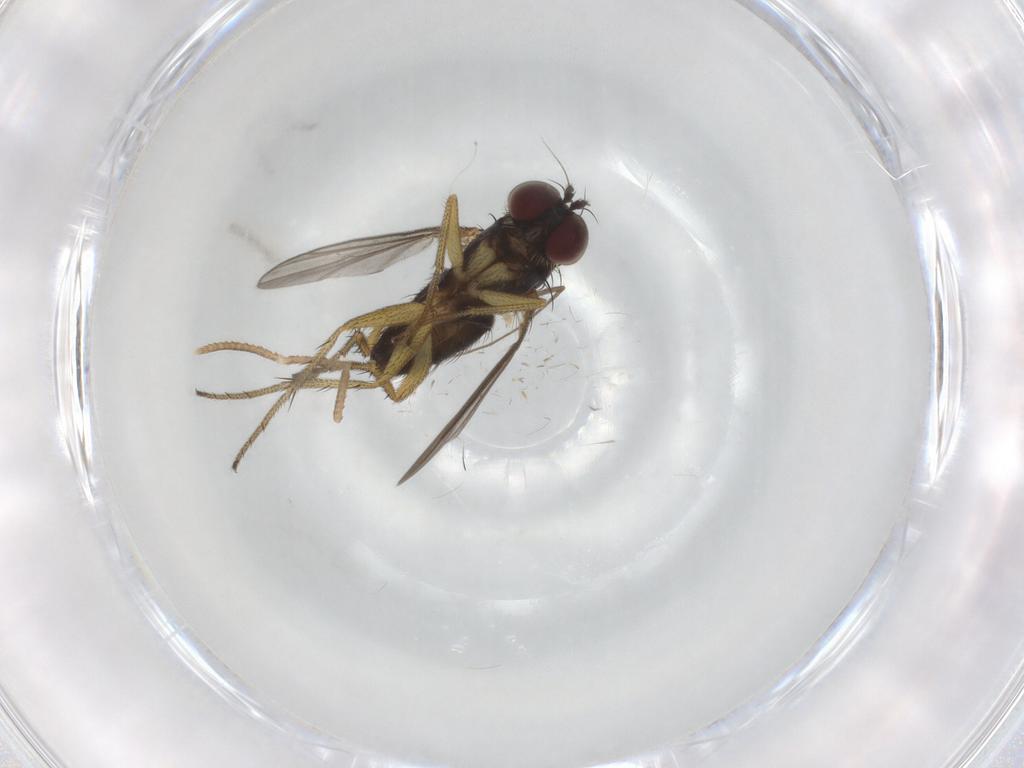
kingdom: Animalia
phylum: Arthropoda
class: Insecta
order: Diptera
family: Dolichopodidae
